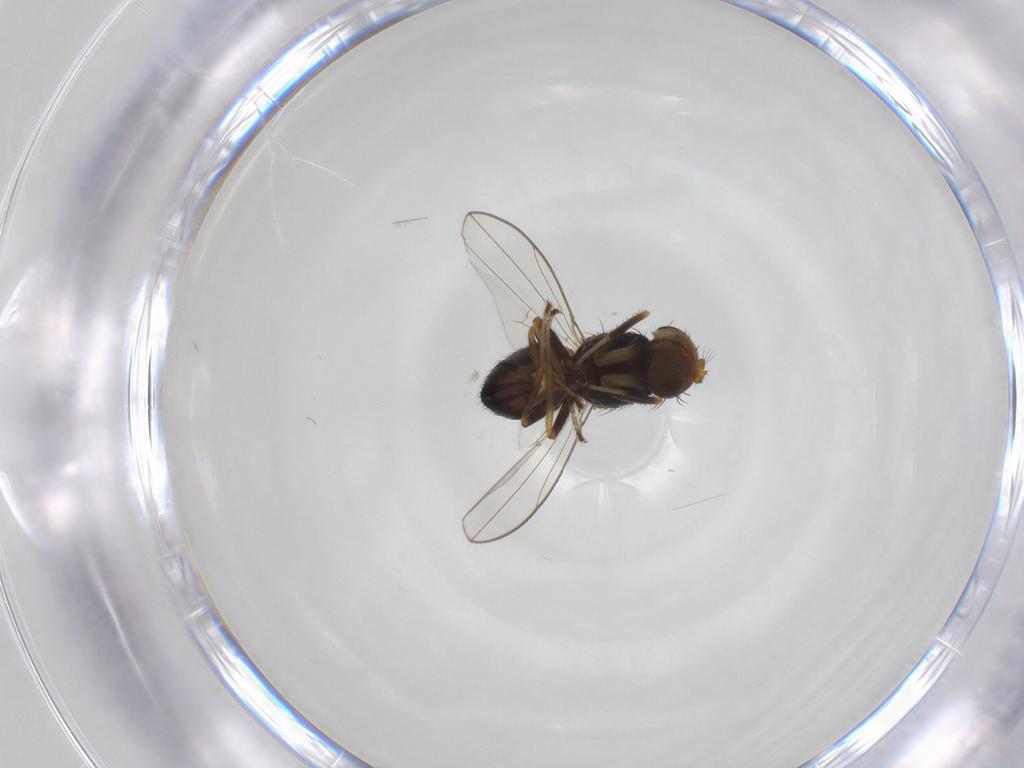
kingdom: Animalia
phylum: Arthropoda
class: Insecta
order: Diptera
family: Ephydridae
